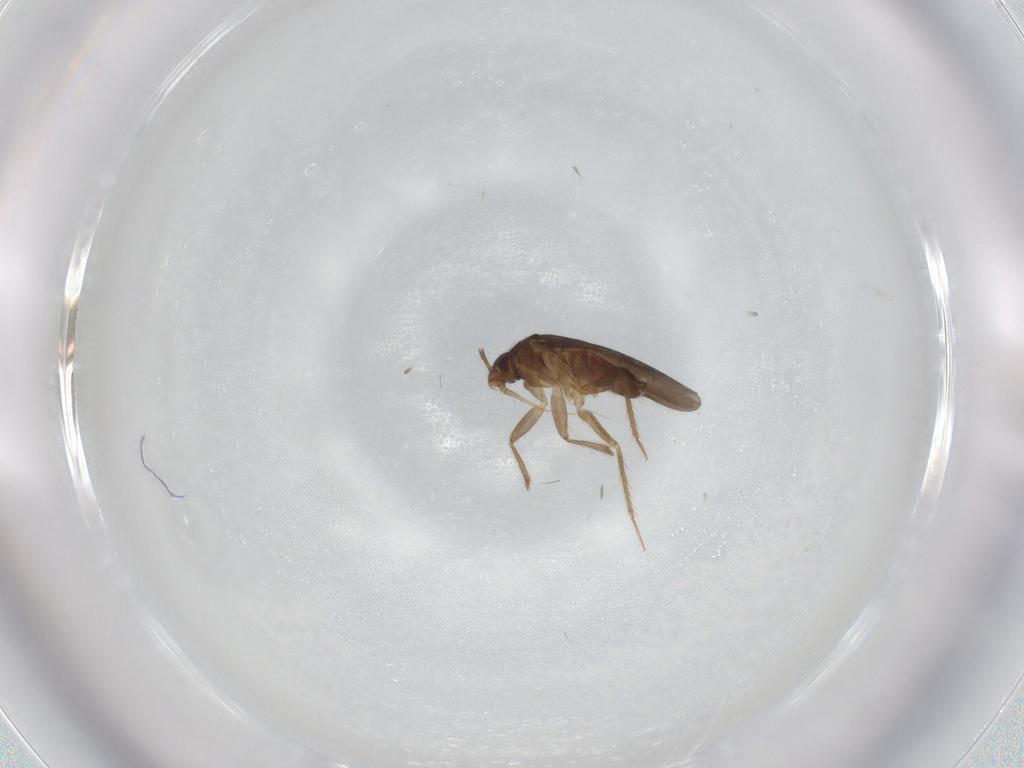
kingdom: Animalia
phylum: Arthropoda
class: Insecta
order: Hemiptera
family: Ceratocombidae
